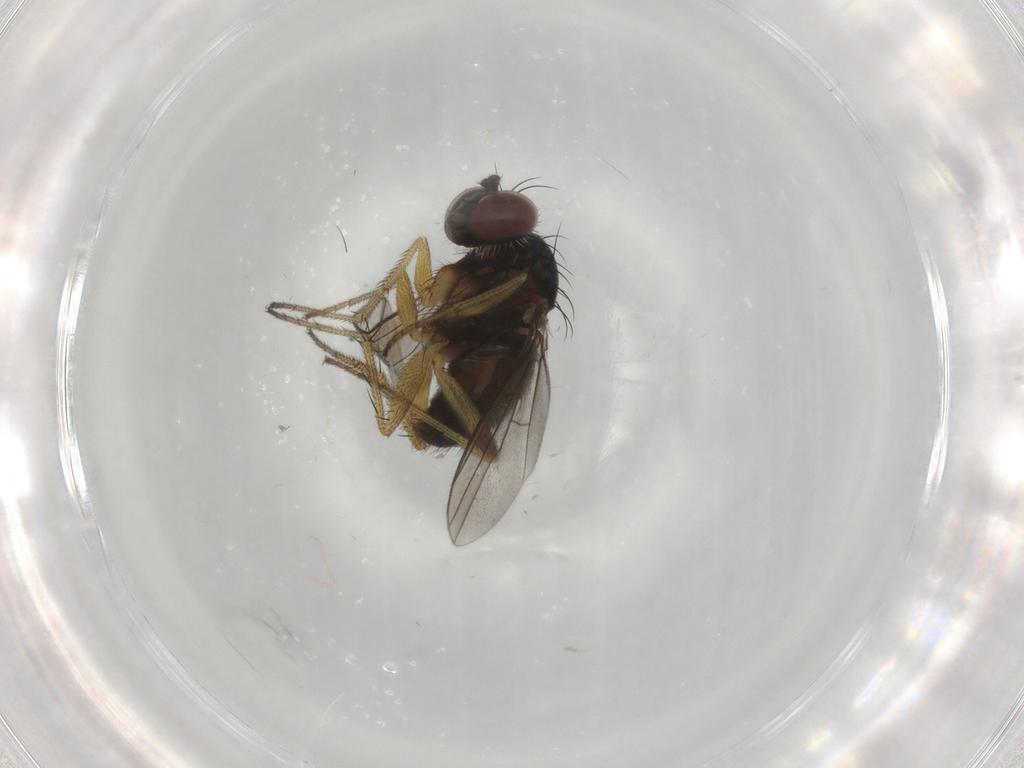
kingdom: Animalia
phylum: Arthropoda
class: Insecta
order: Diptera
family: Dolichopodidae
